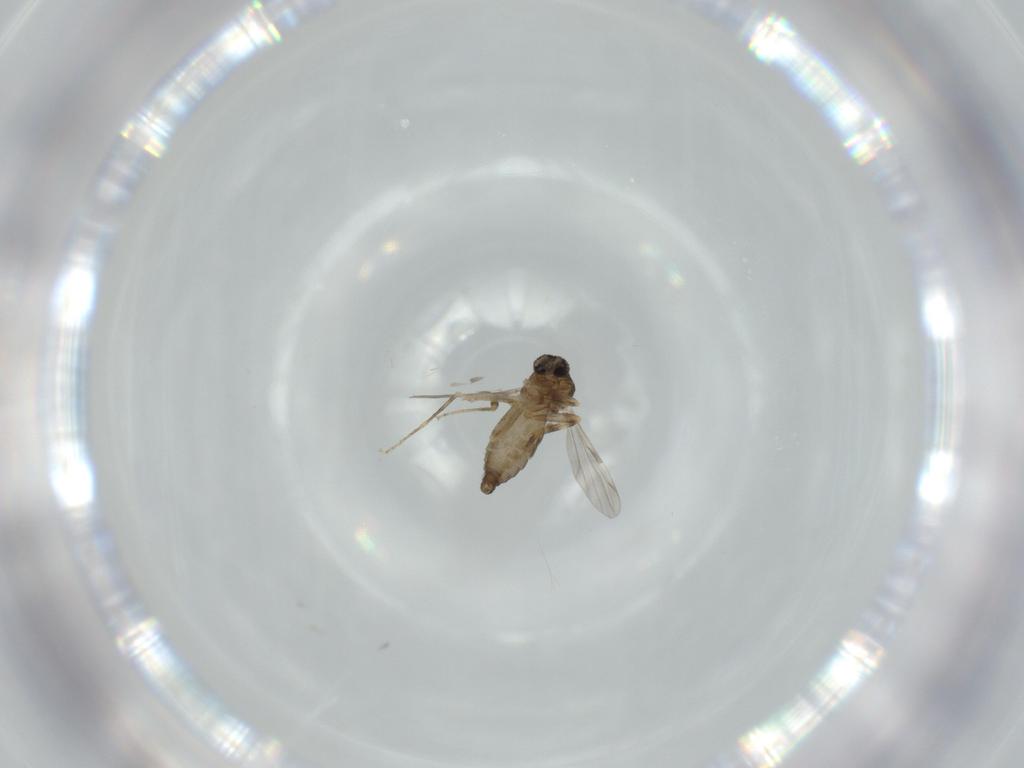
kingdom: Animalia
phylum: Arthropoda
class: Insecta
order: Diptera
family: Ceratopogonidae
